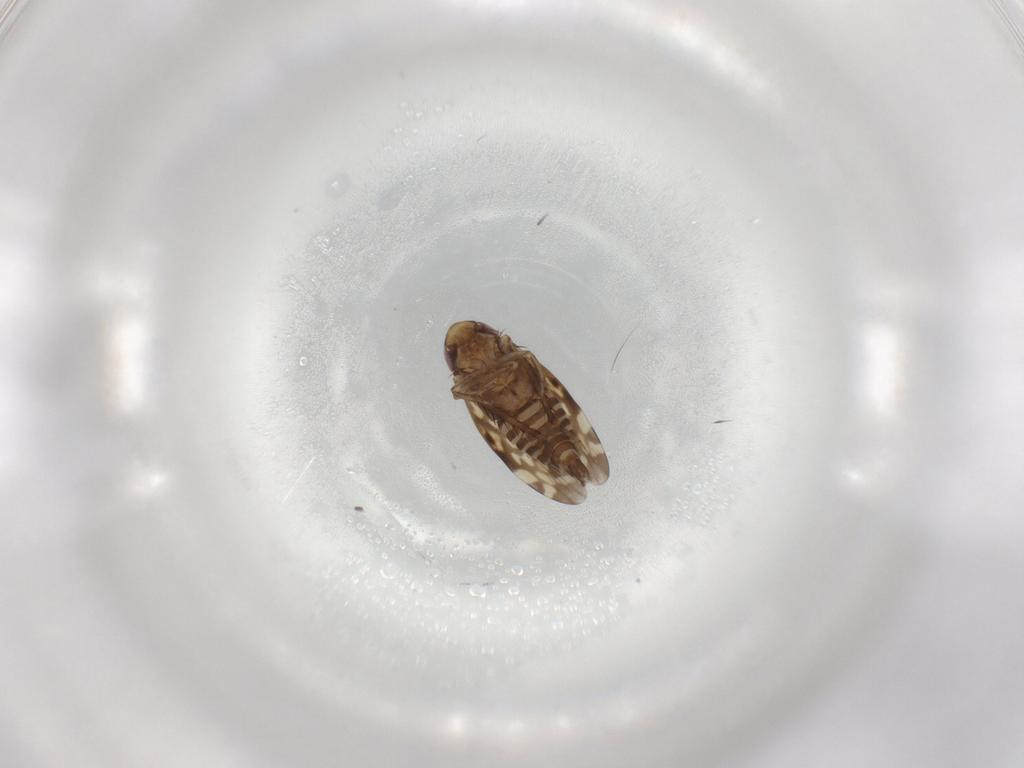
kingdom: Animalia
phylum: Arthropoda
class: Insecta
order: Hemiptera
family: Cicadellidae
